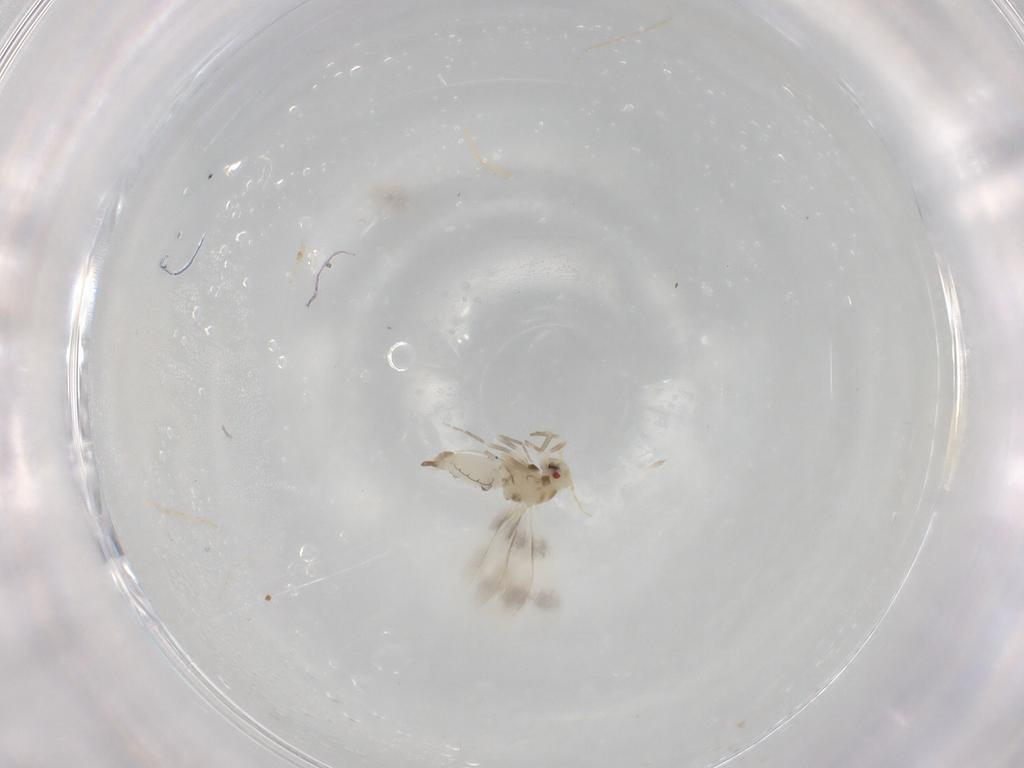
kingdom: Animalia
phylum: Arthropoda
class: Insecta
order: Hemiptera
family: Aleyrodidae
